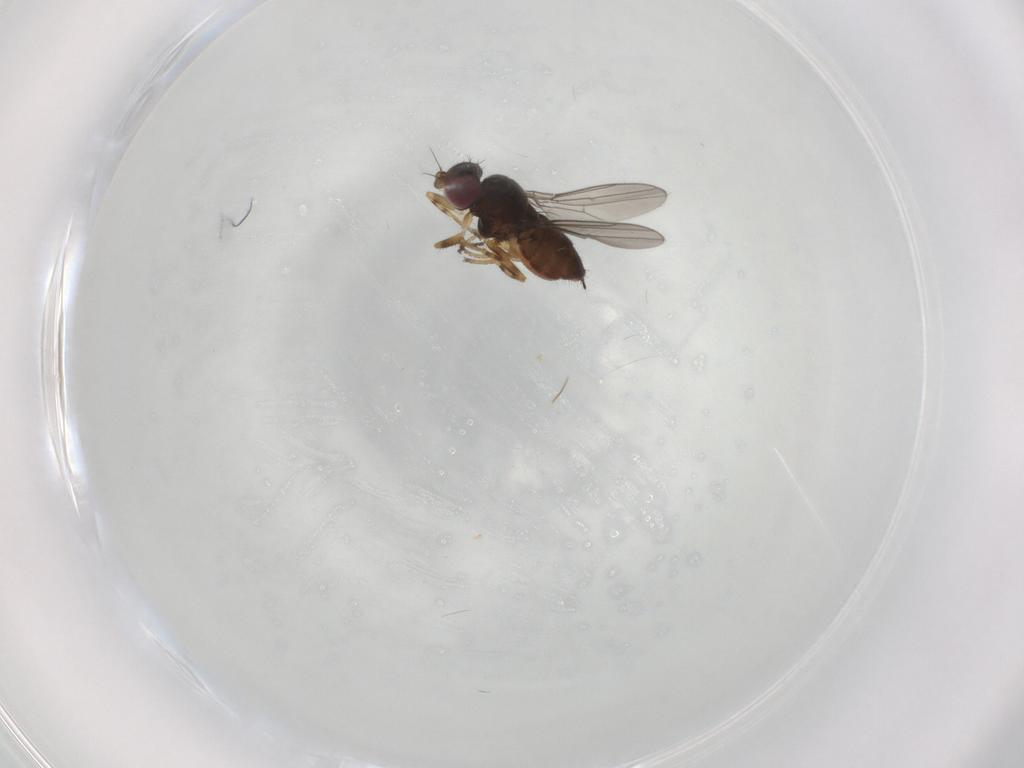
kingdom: Animalia
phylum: Arthropoda
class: Insecta
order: Diptera
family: Chloropidae
